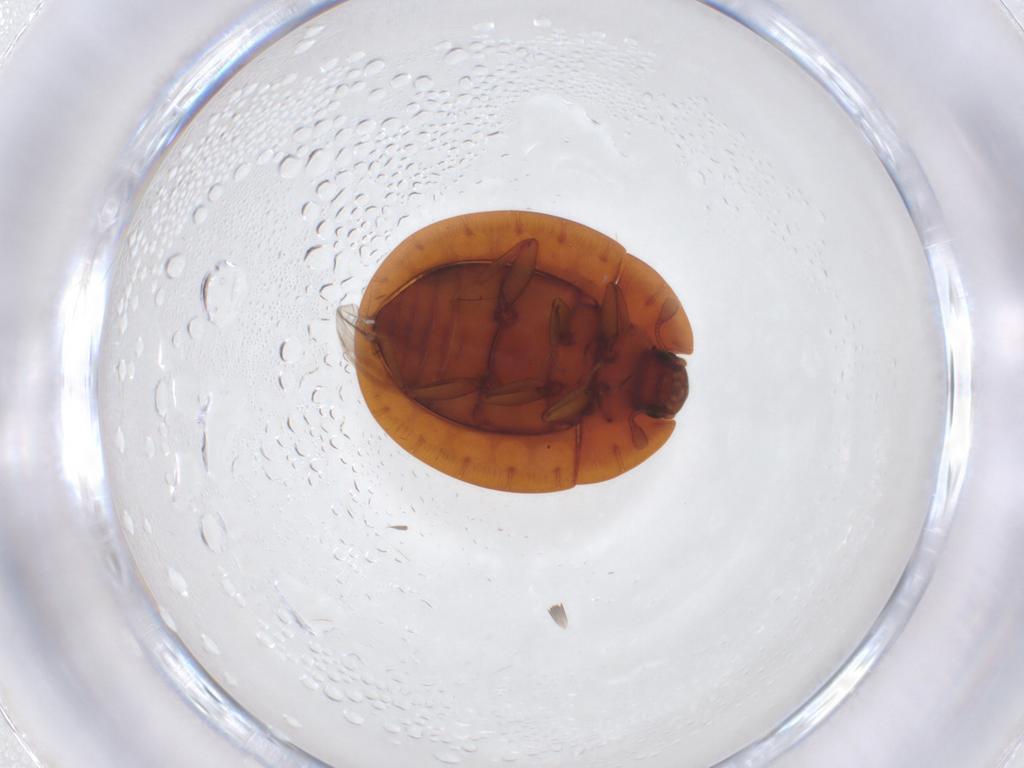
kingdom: Animalia
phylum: Arthropoda
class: Insecta
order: Coleoptera
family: Discolomatidae
